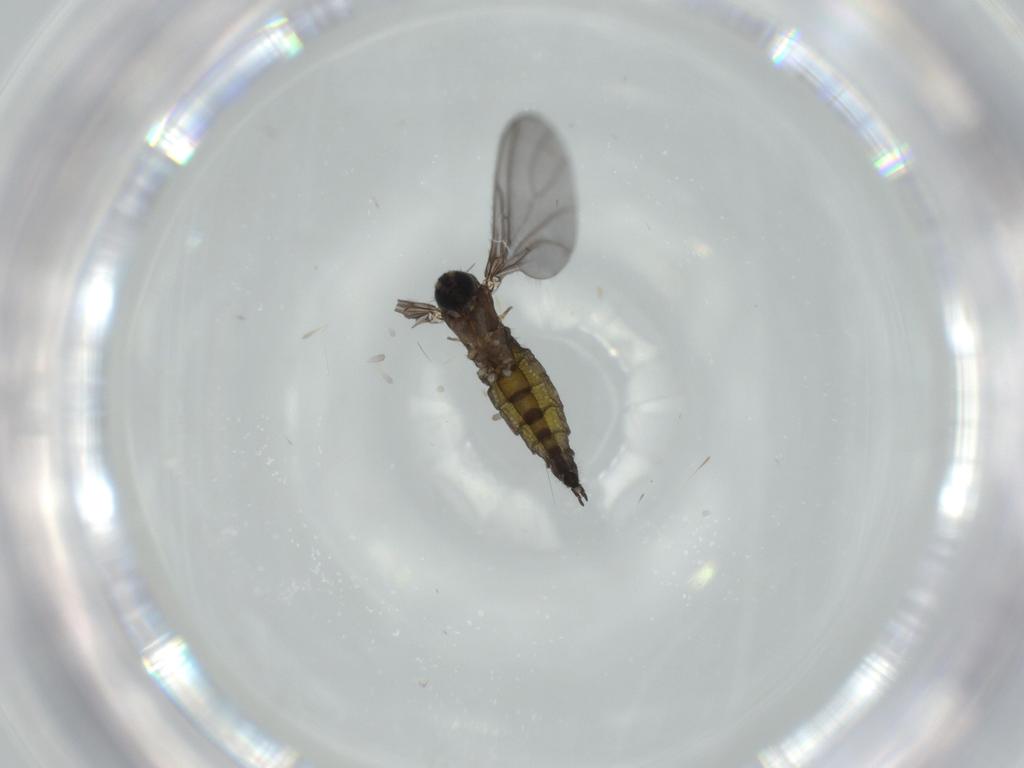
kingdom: Animalia
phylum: Arthropoda
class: Insecta
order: Diptera
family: Sciaridae
